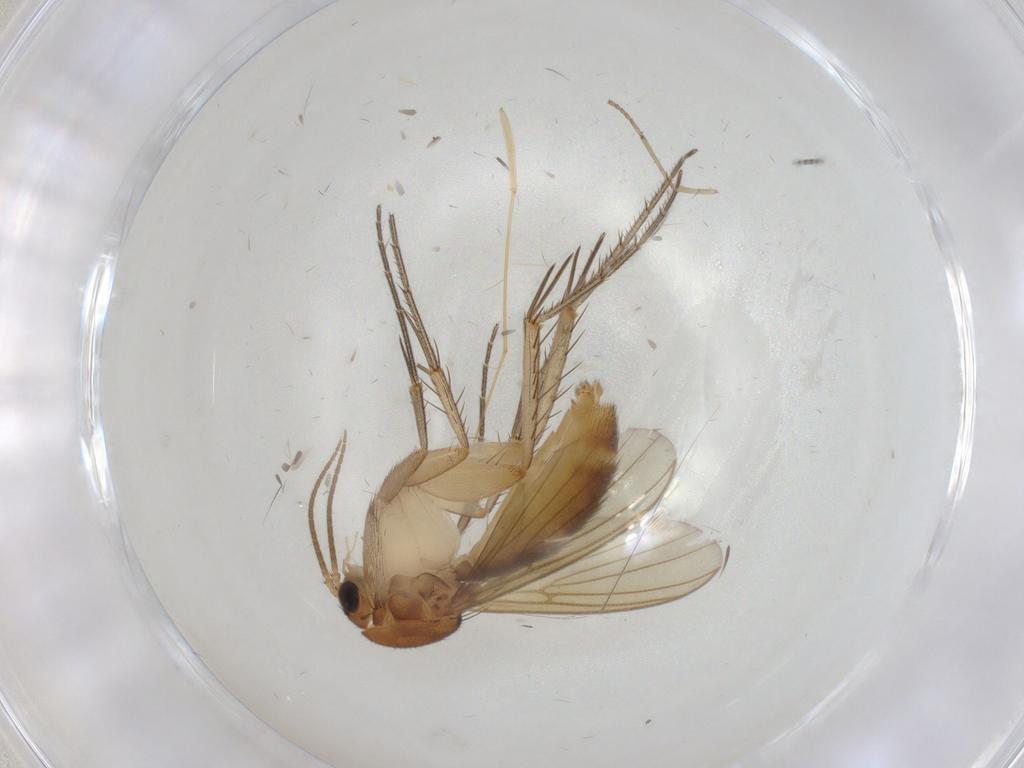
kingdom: Animalia
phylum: Arthropoda
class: Insecta
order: Diptera
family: Mycetophilidae
